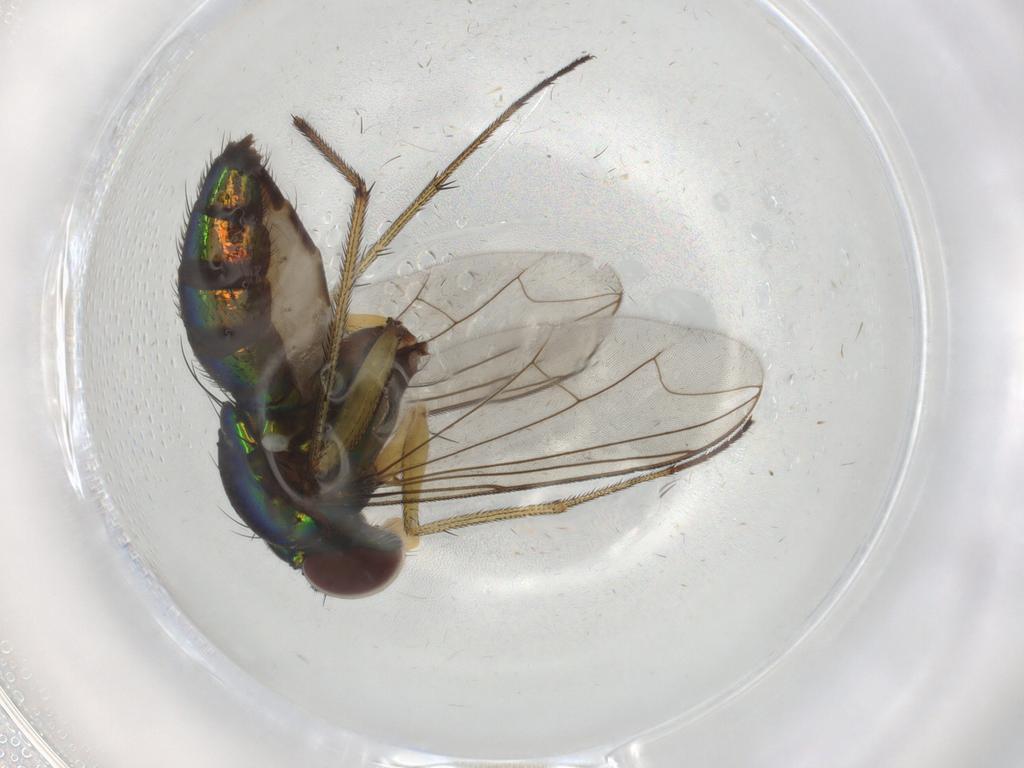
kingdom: Animalia
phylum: Arthropoda
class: Insecta
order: Diptera
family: Dolichopodidae
